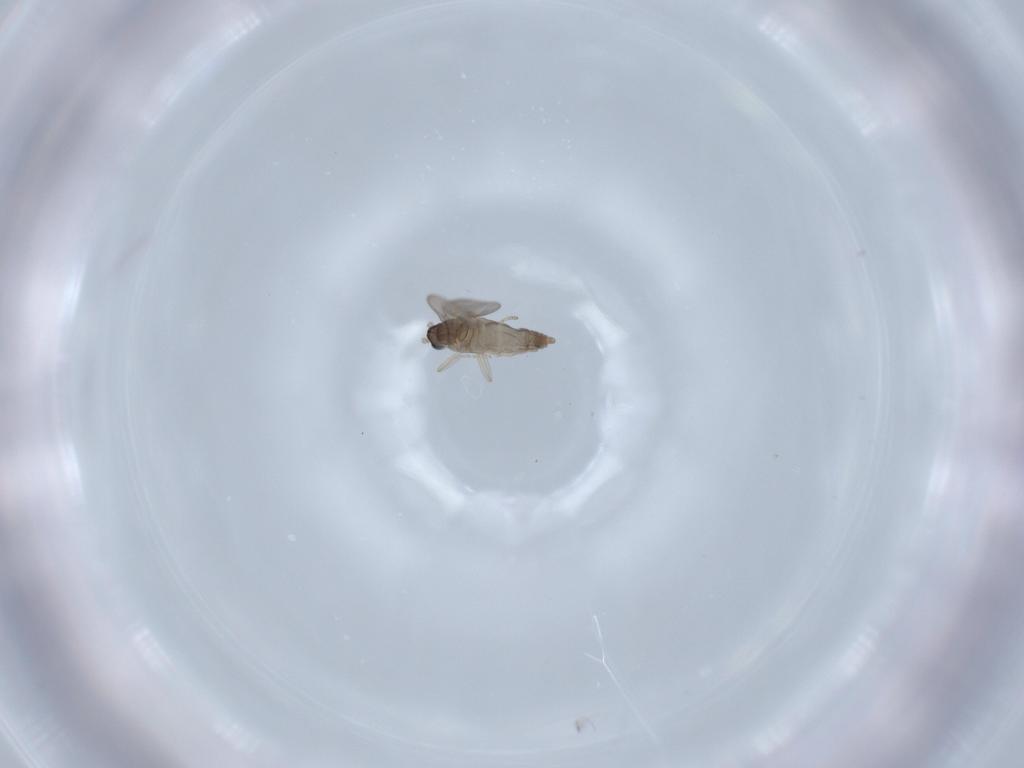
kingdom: Animalia
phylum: Arthropoda
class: Insecta
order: Diptera
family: Cecidomyiidae
